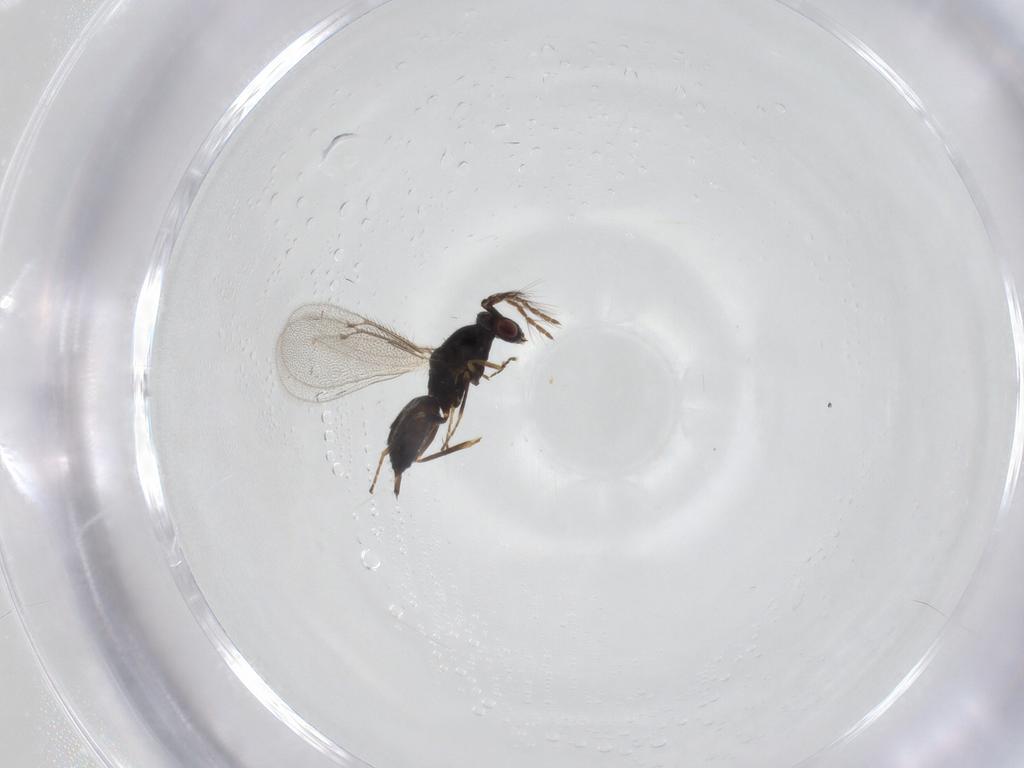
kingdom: Animalia
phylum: Arthropoda
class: Insecta
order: Hymenoptera
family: Eulophidae
